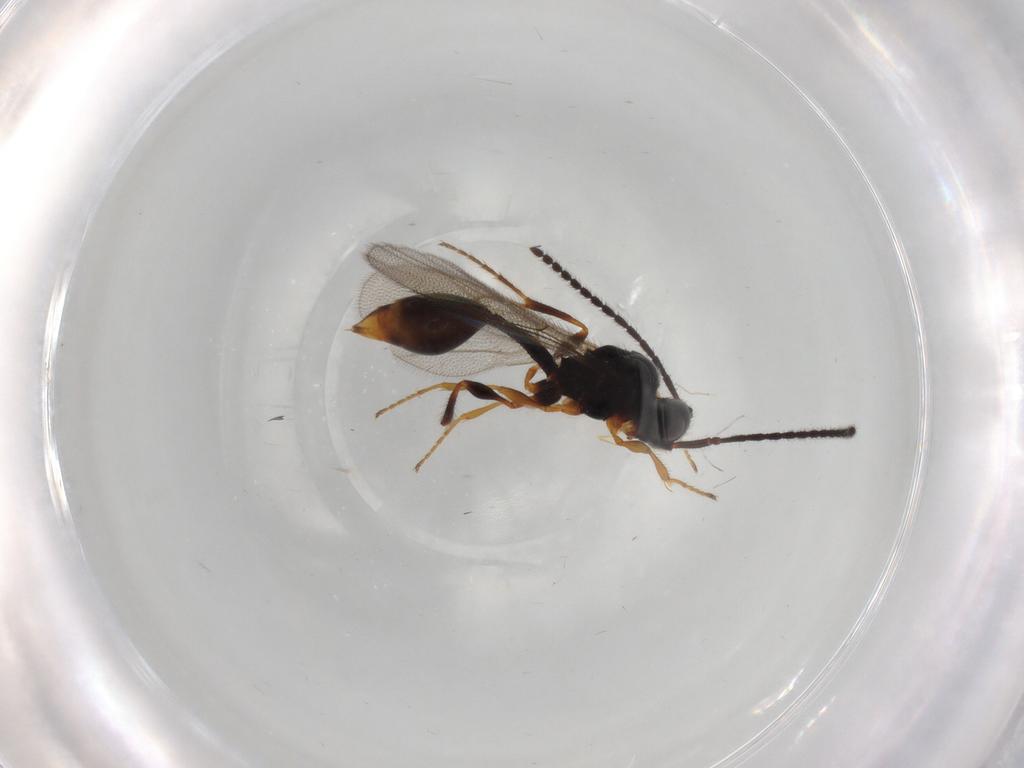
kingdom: Animalia
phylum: Arthropoda
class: Insecta
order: Hymenoptera
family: Diapriidae
